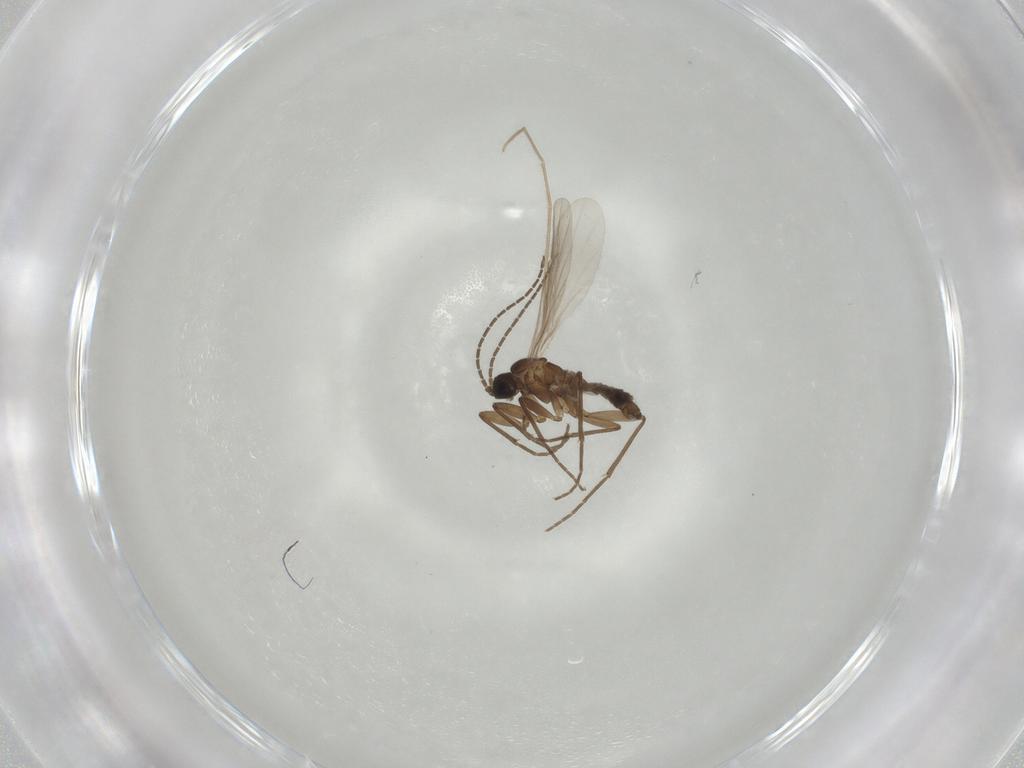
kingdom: Animalia
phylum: Arthropoda
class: Insecta
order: Diptera
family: Sciaridae
